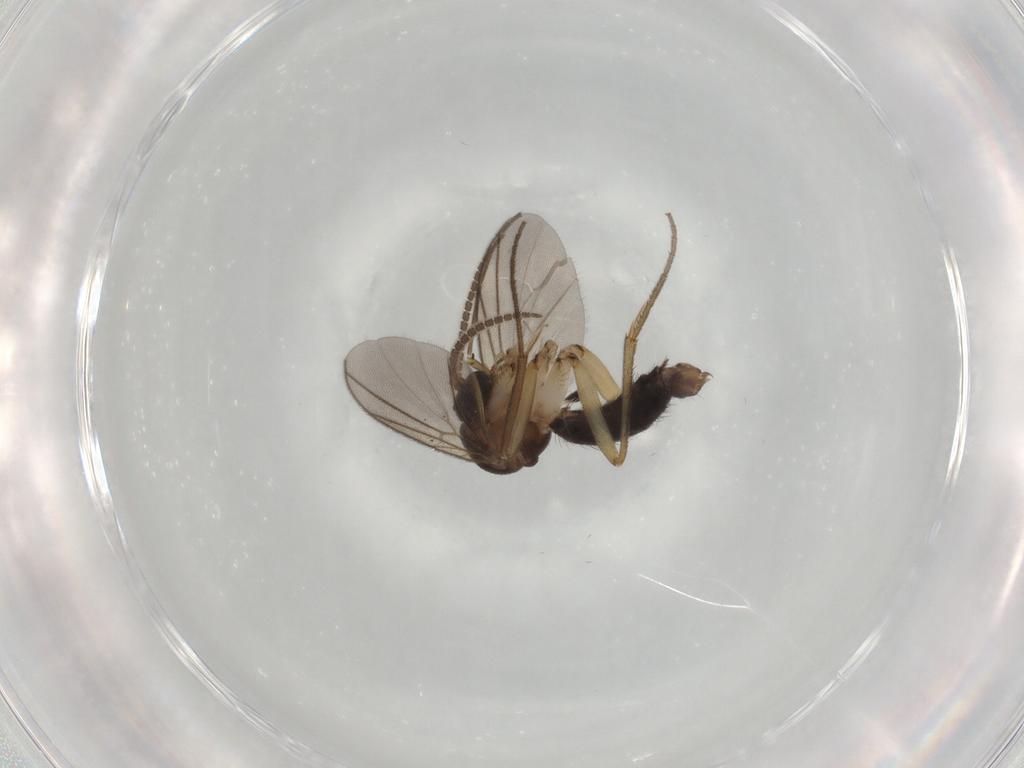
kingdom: Animalia
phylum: Arthropoda
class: Insecta
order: Diptera
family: Mycetophilidae
